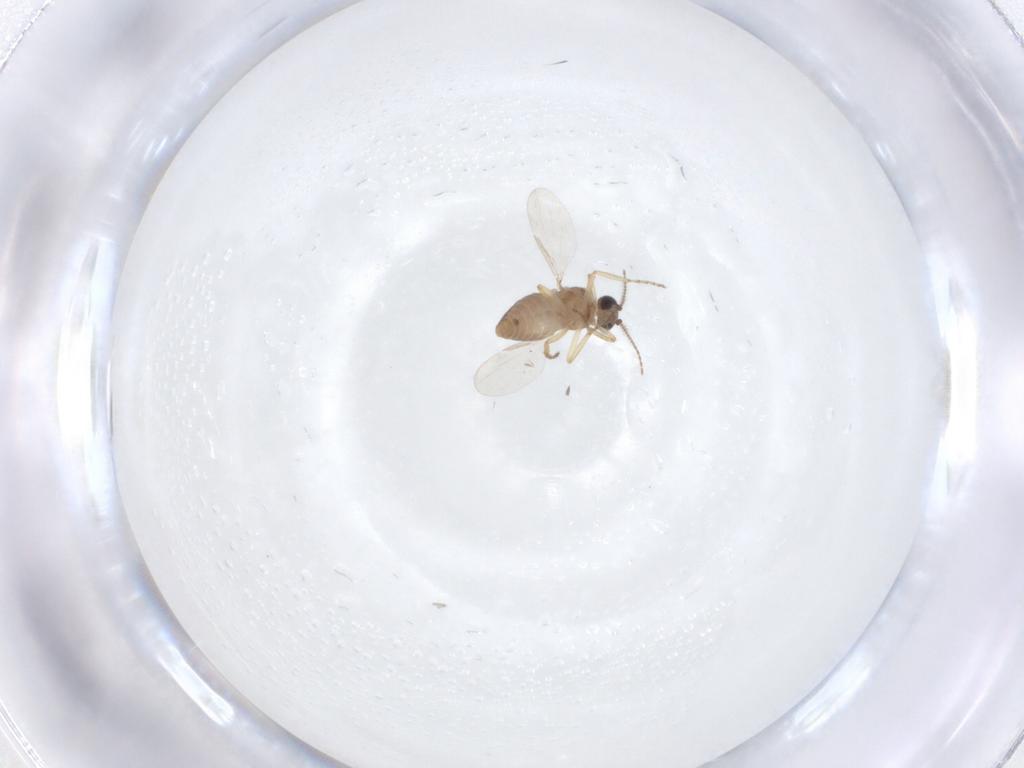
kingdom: Animalia
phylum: Arthropoda
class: Insecta
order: Diptera
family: Ceratopogonidae
